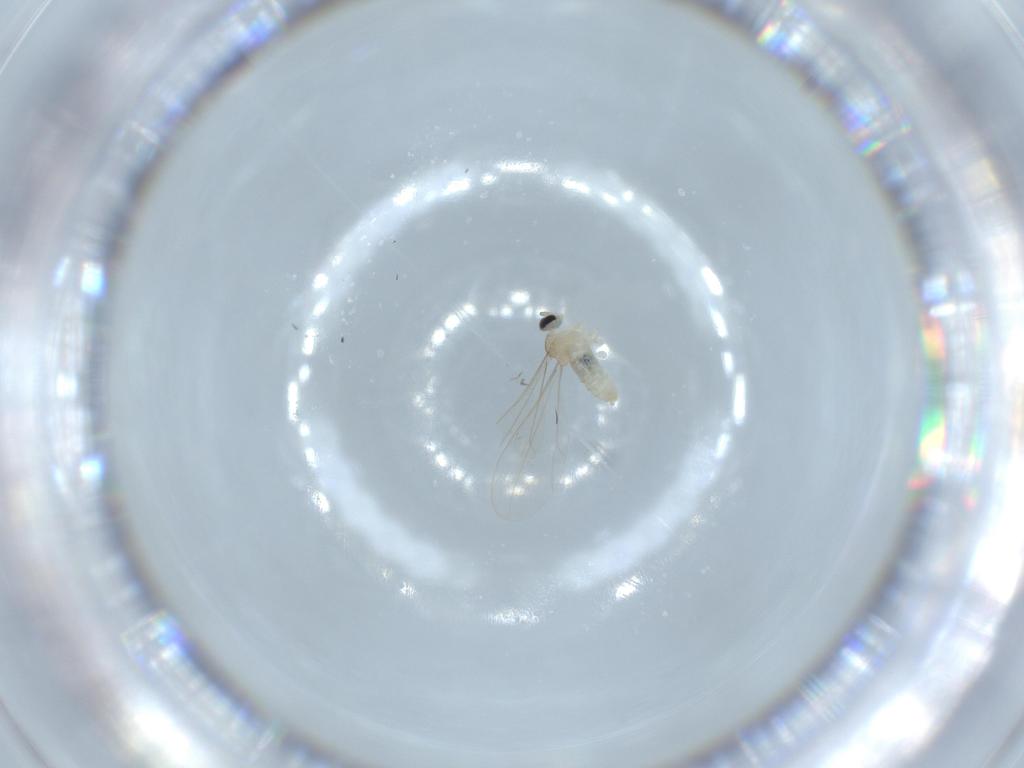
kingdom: Animalia
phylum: Arthropoda
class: Insecta
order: Diptera
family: Cecidomyiidae
